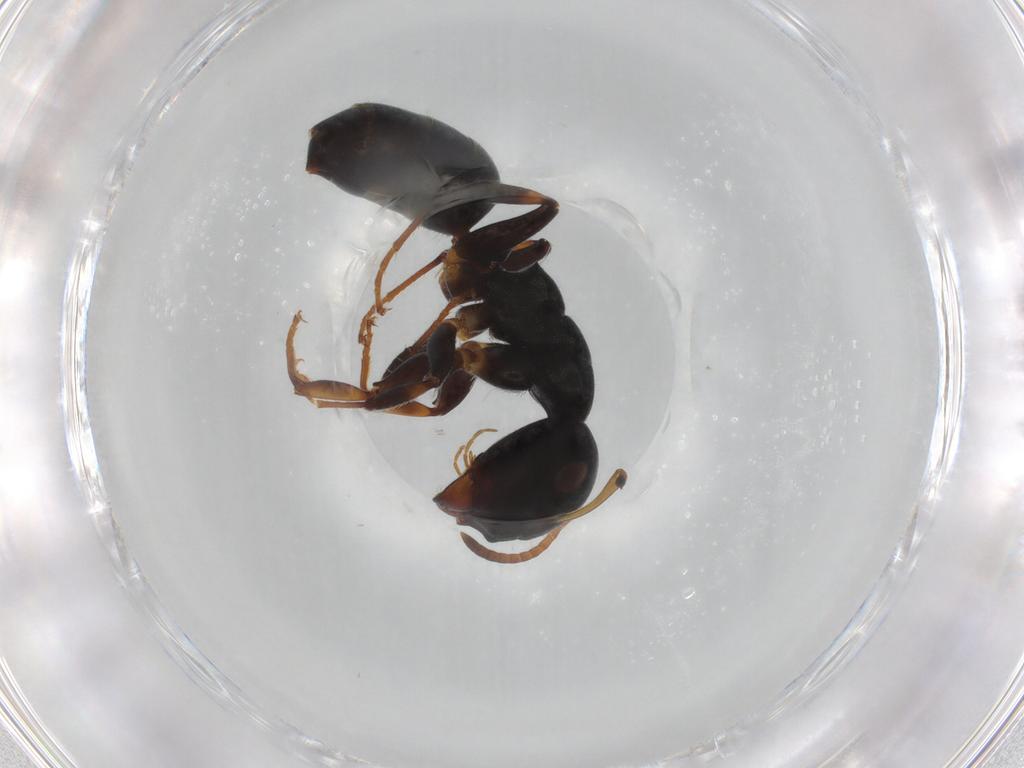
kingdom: Animalia
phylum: Arthropoda
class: Insecta
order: Hymenoptera
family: Formicidae
